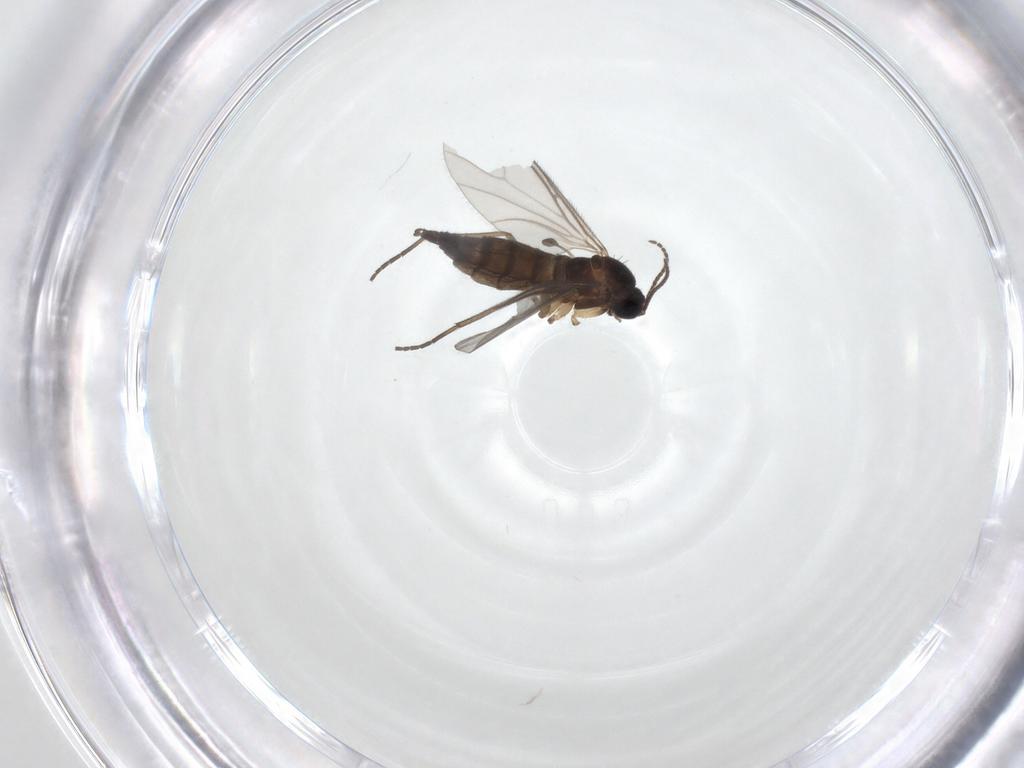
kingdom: Animalia
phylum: Arthropoda
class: Insecta
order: Diptera
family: Sciaridae
